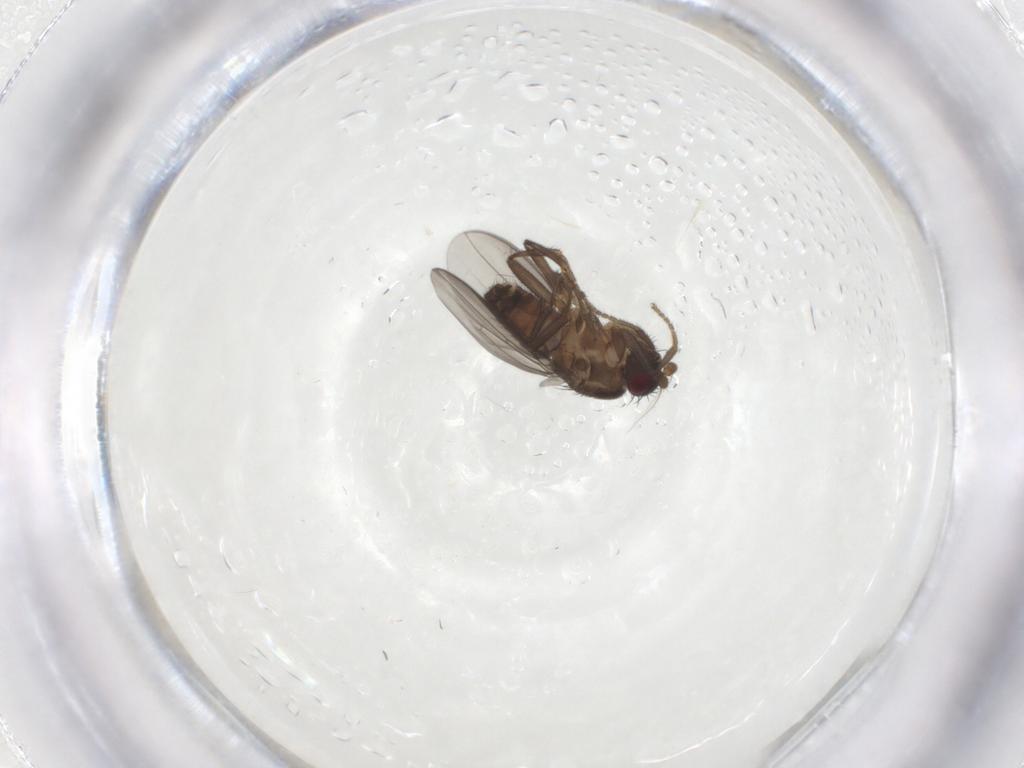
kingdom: Animalia
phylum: Arthropoda
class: Insecta
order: Diptera
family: Sphaeroceridae
